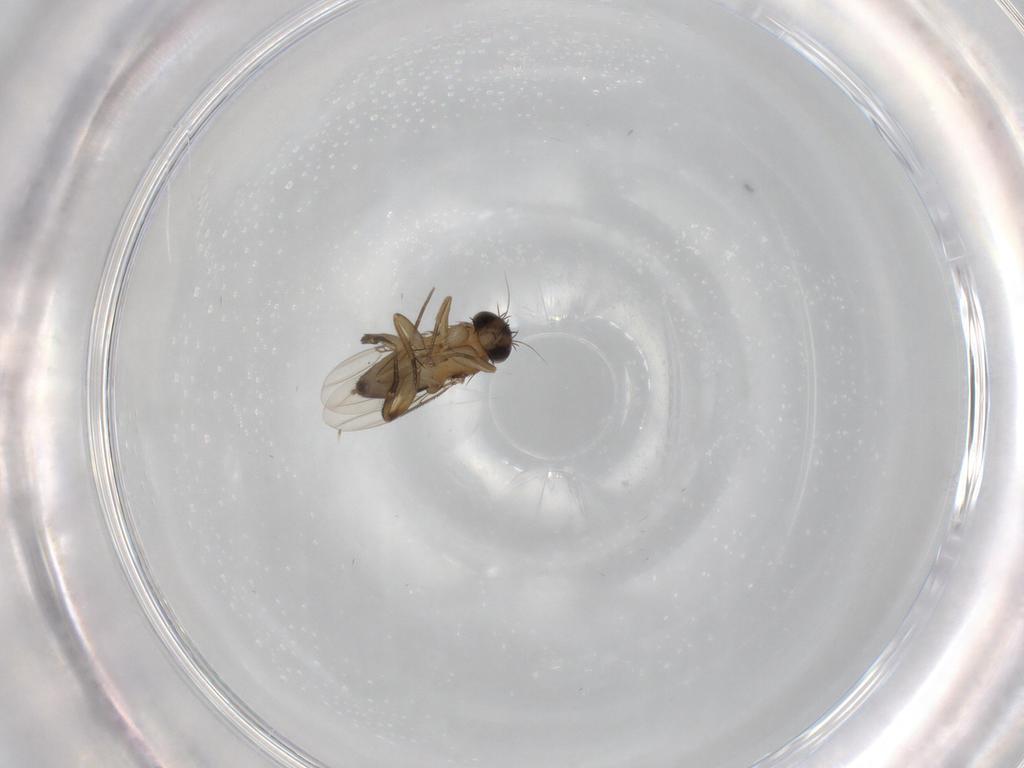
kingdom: Animalia
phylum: Arthropoda
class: Insecta
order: Diptera
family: Phoridae
